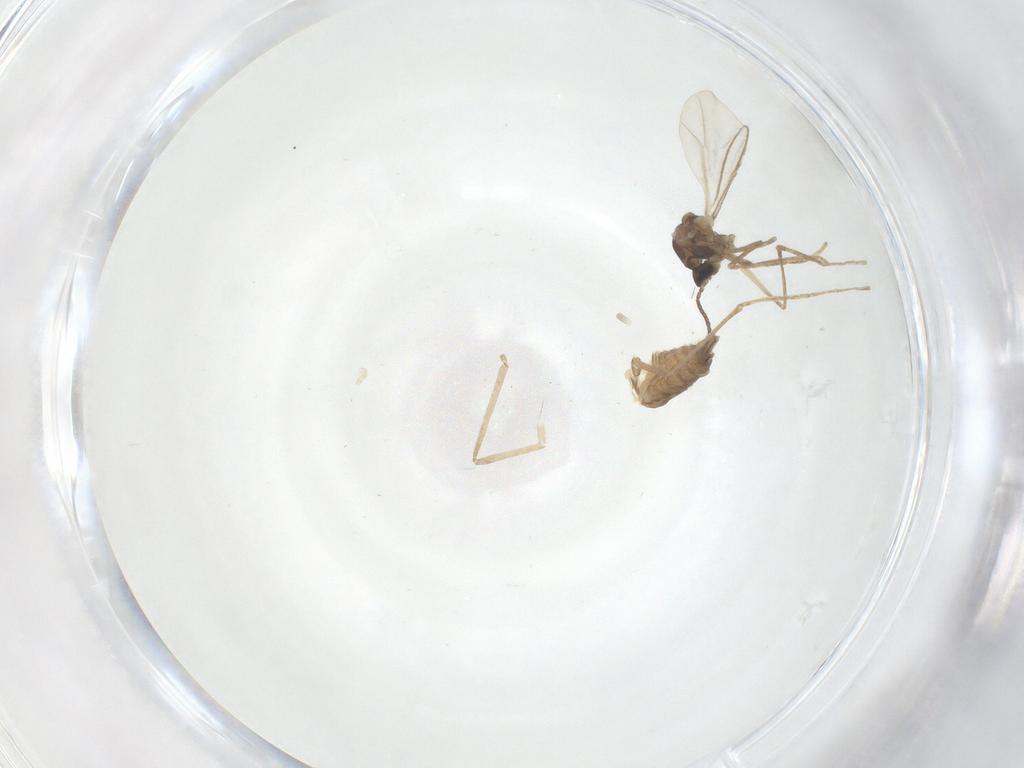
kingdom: Animalia
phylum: Arthropoda
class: Insecta
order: Diptera
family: Cecidomyiidae
